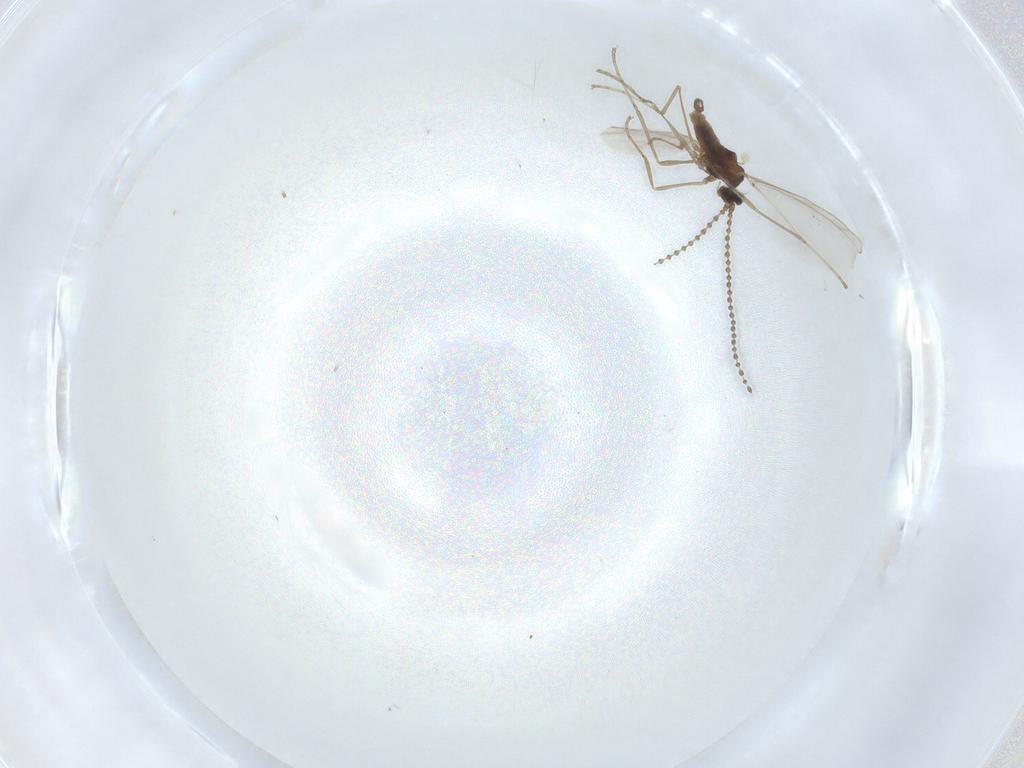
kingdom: Animalia
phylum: Arthropoda
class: Insecta
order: Diptera
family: Cecidomyiidae
